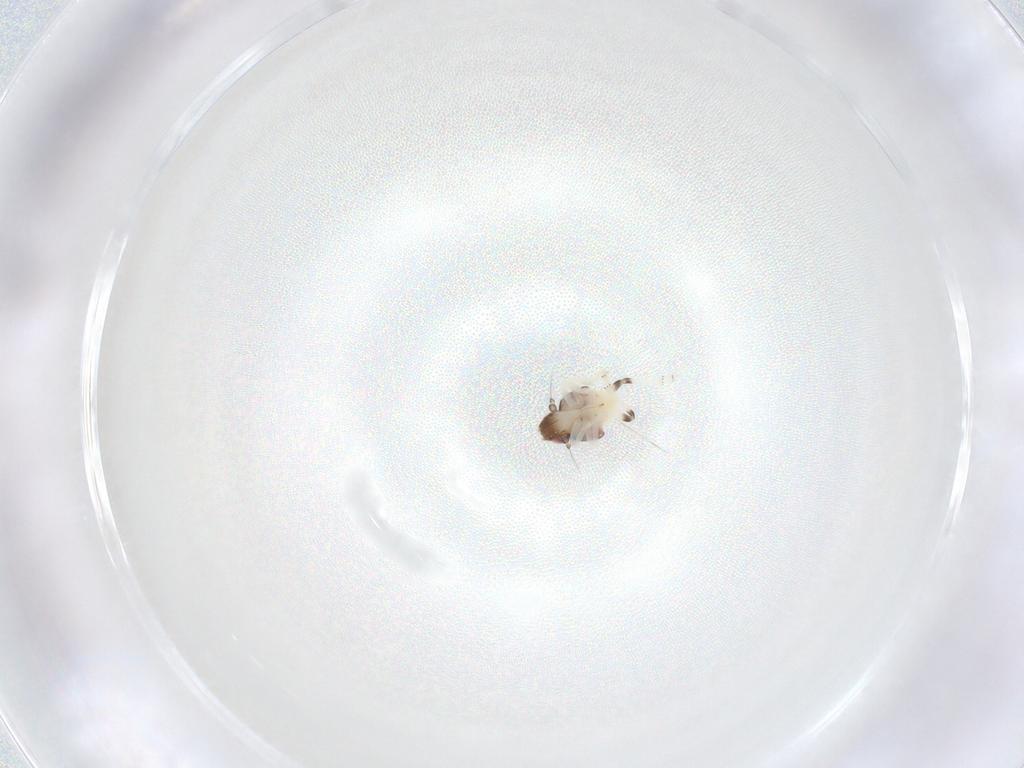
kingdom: Animalia
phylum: Arthropoda
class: Insecta
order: Hemiptera
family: Nogodinidae
